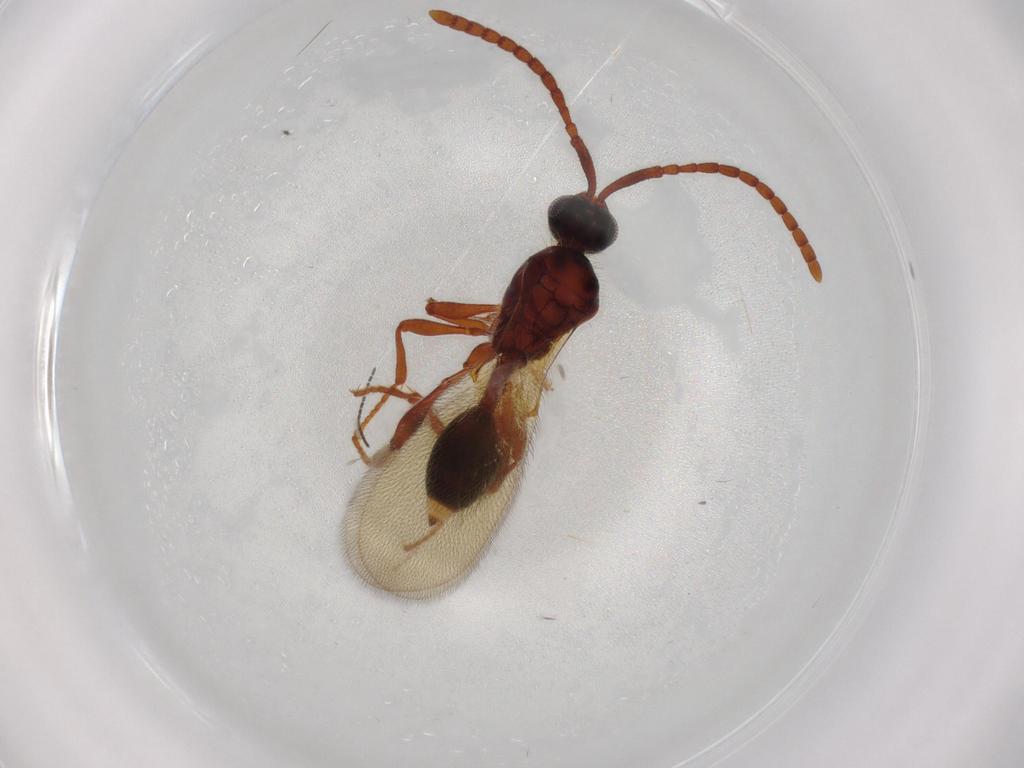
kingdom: Animalia
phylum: Arthropoda
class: Insecta
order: Hymenoptera
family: Diapriidae
